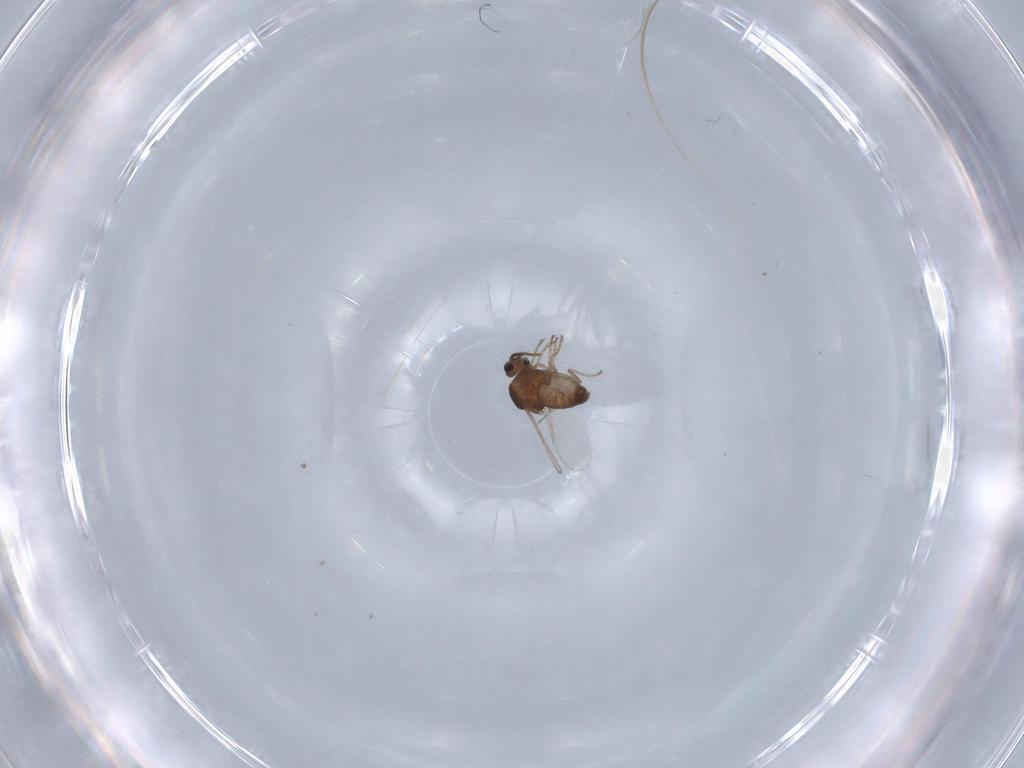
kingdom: Animalia
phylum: Arthropoda
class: Insecta
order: Diptera
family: Ceratopogonidae
